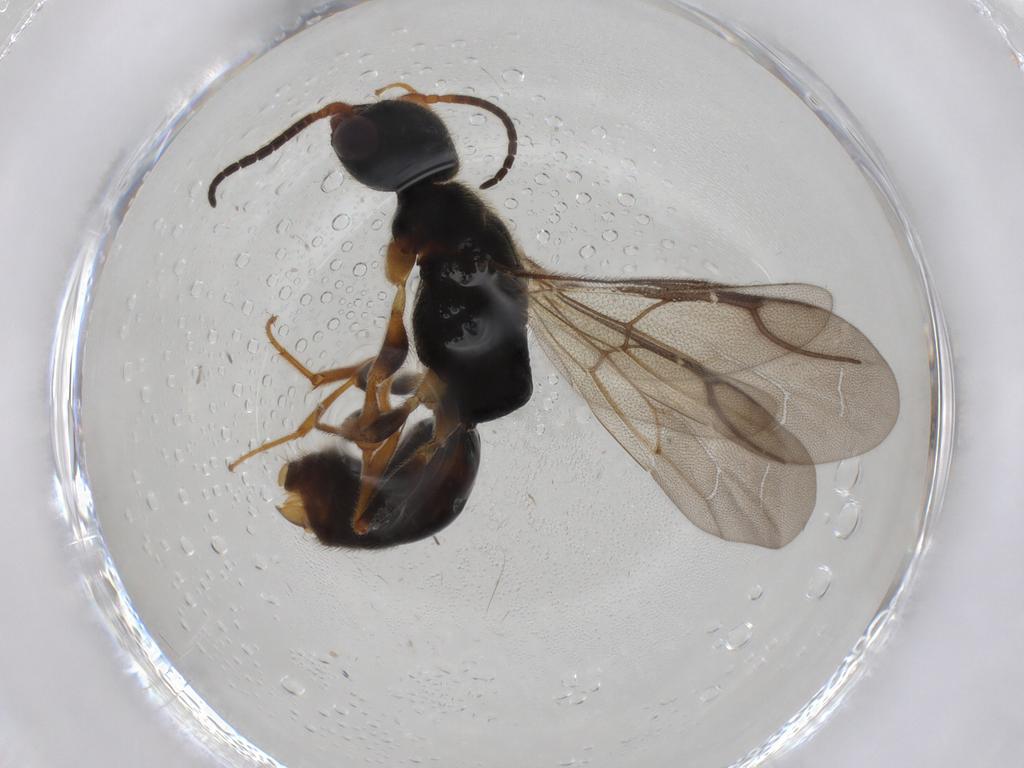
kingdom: Animalia
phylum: Arthropoda
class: Insecta
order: Hymenoptera
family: Bethylidae
